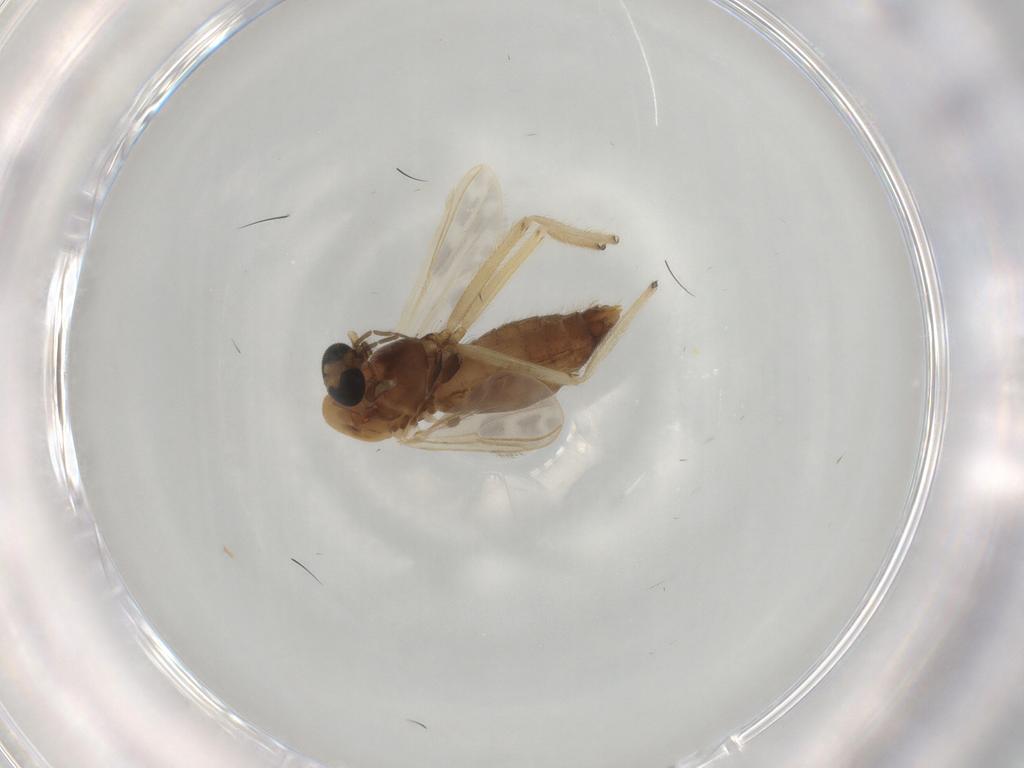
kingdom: Animalia
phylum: Arthropoda
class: Insecta
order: Diptera
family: Chironomidae
